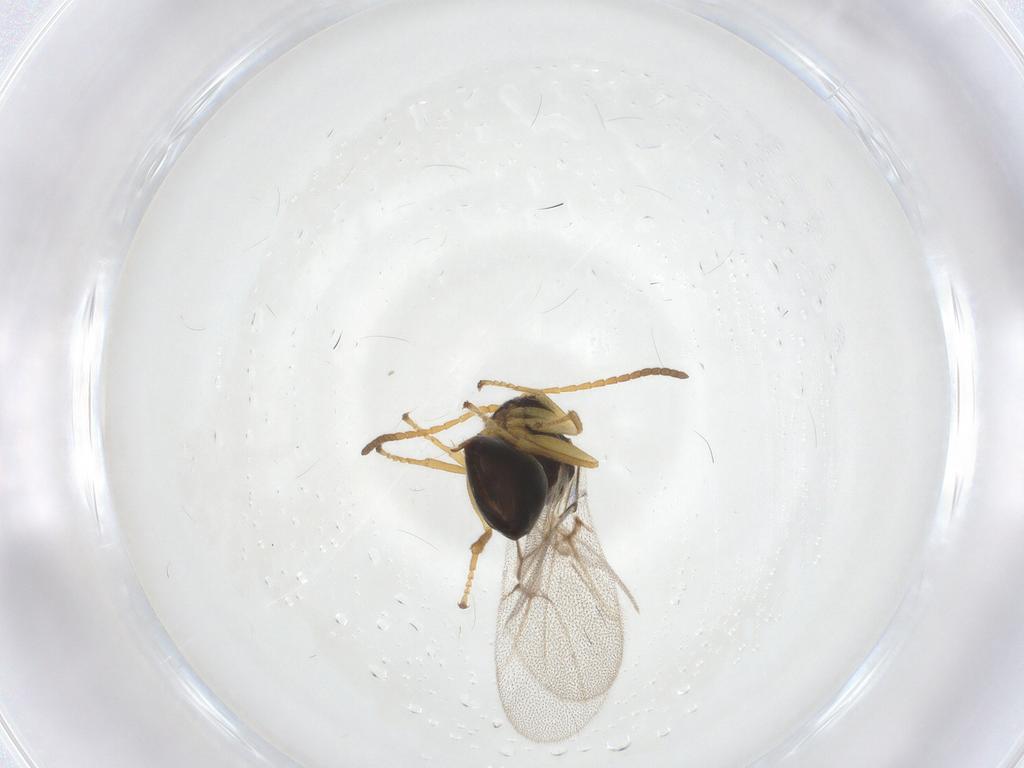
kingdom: Animalia
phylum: Arthropoda
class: Insecta
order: Hymenoptera
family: Cynipidae
